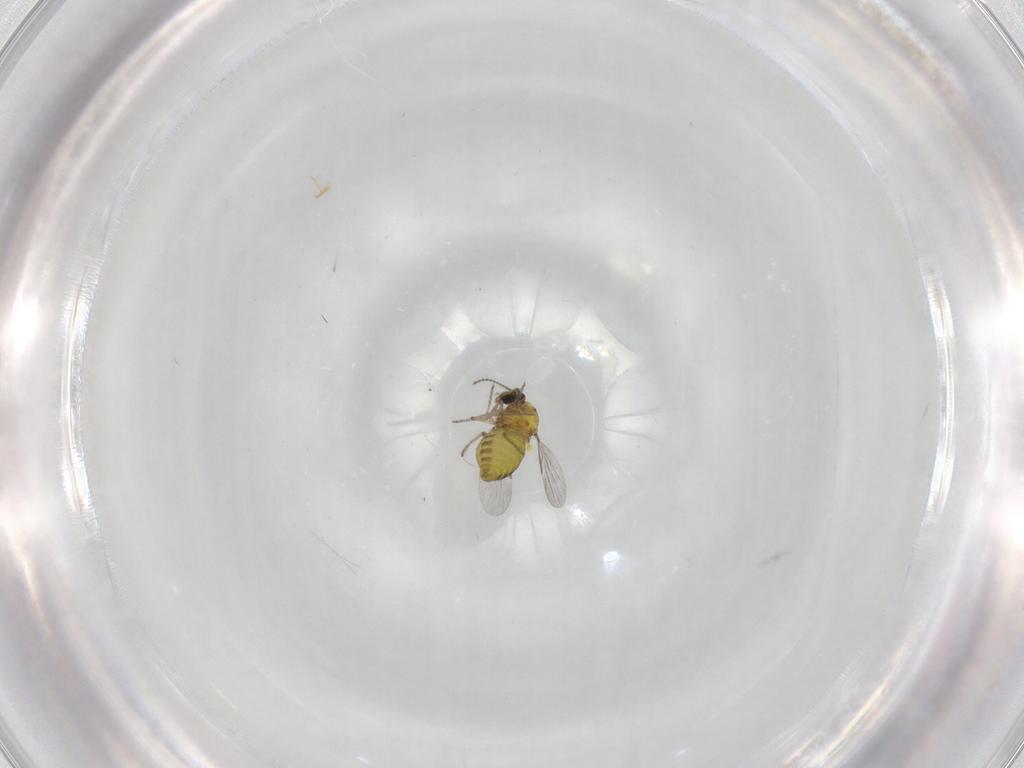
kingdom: Animalia
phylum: Arthropoda
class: Insecta
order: Diptera
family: Ceratopogonidae
